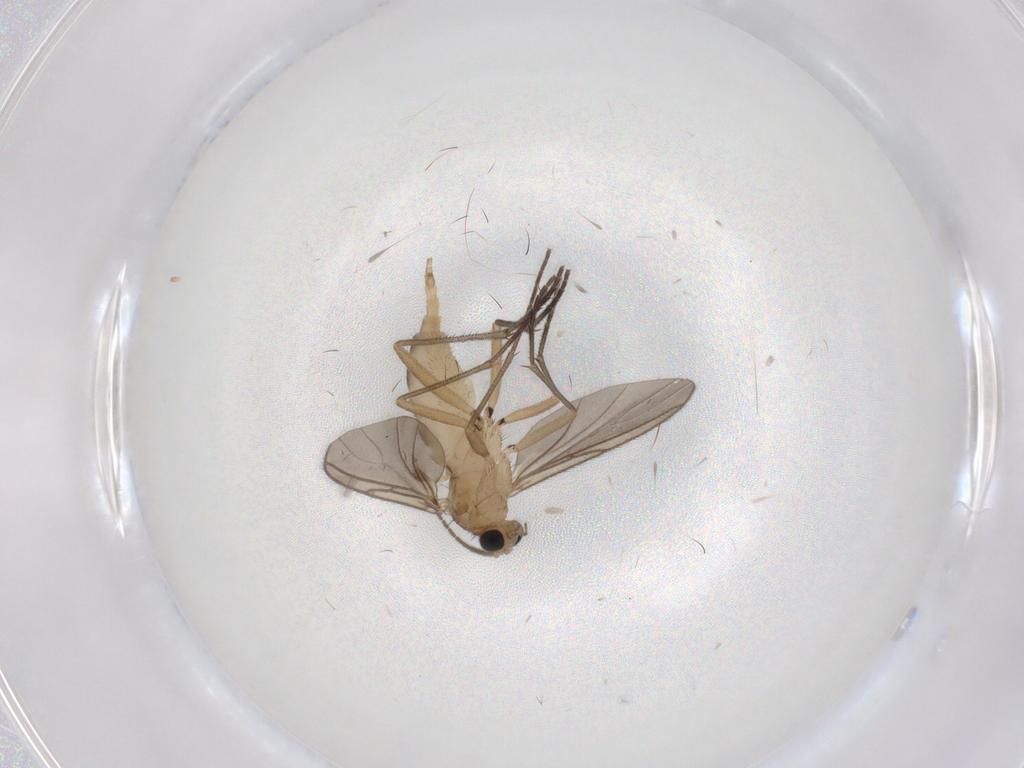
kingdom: Animalia
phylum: Arthropoda
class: Insecta
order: Diptera
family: Sciaridae
